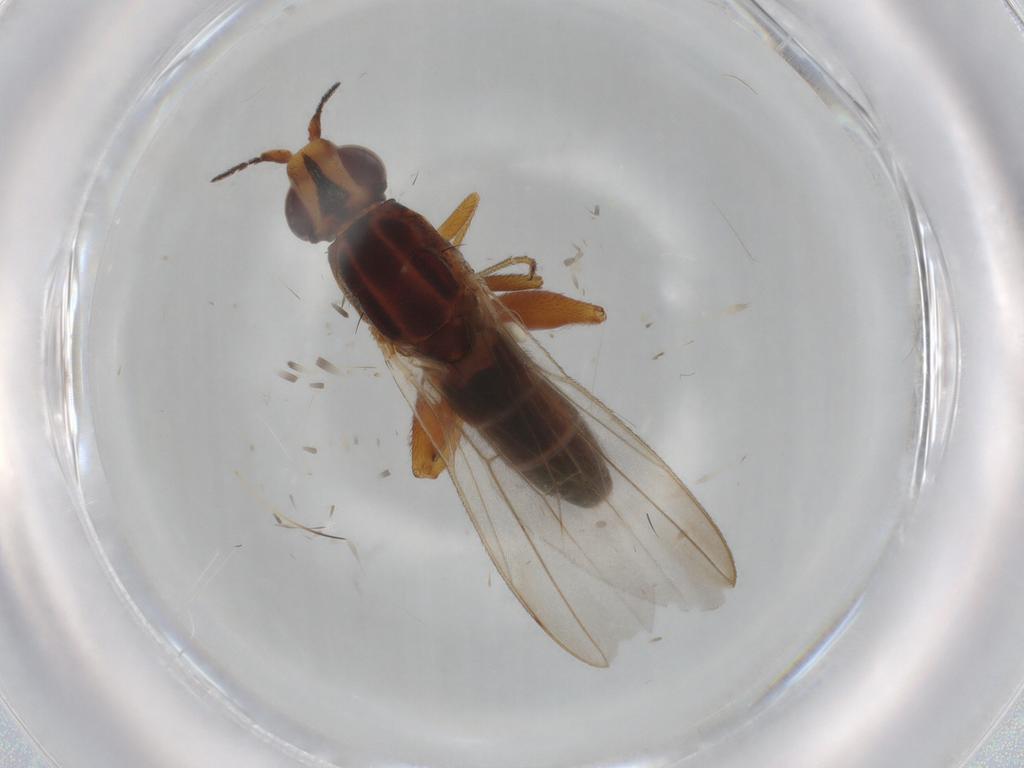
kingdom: Animalia
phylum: Arthropoda
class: Insecta
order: Diptera
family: Chloropidae
